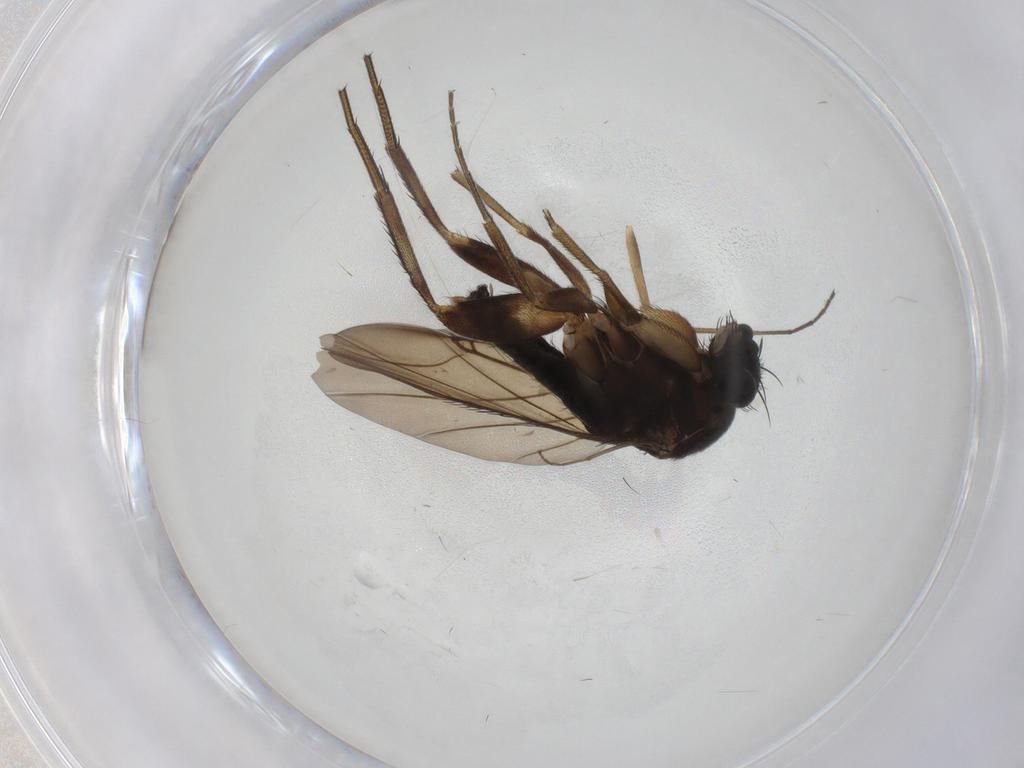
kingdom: Animalia
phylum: Arthropoda
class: Insecta
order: Diptera
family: Phoridae
